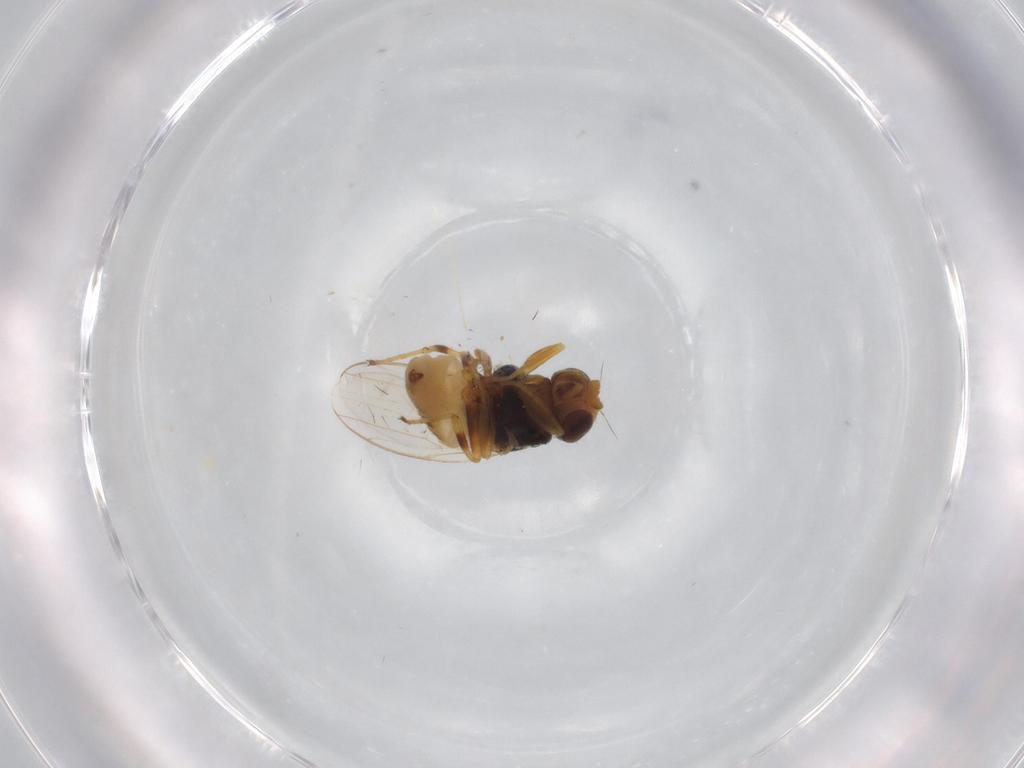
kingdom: Animalia
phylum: Arthropoda
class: Insecta
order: Diptera
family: Chloropidae
